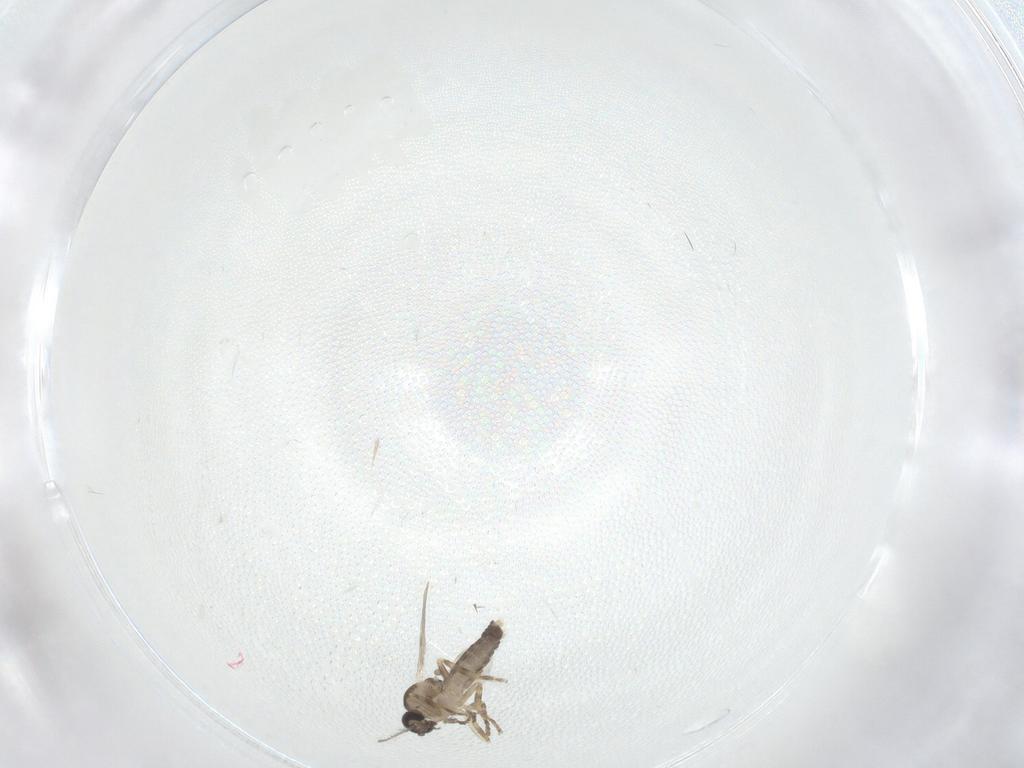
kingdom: Animalia
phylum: Arthropoda
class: Insecta
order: Diptera
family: Ceratopogonidae
